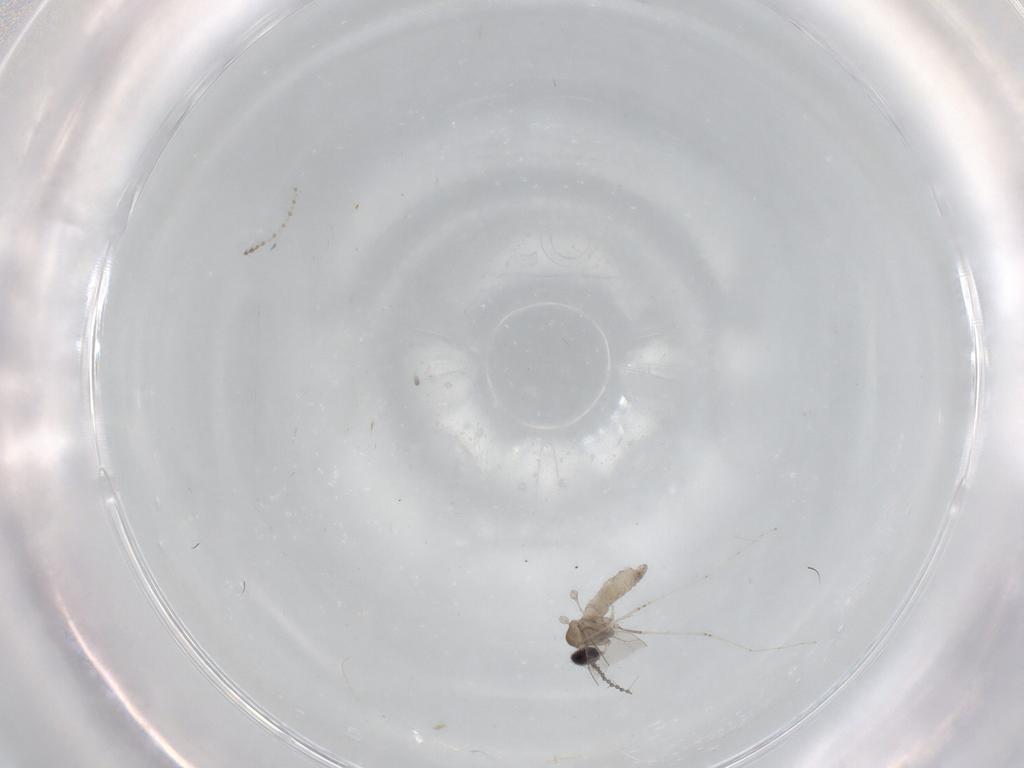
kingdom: Animalia
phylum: Arthropoda
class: Insecta
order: Diptera
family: Cecidomyiidae
